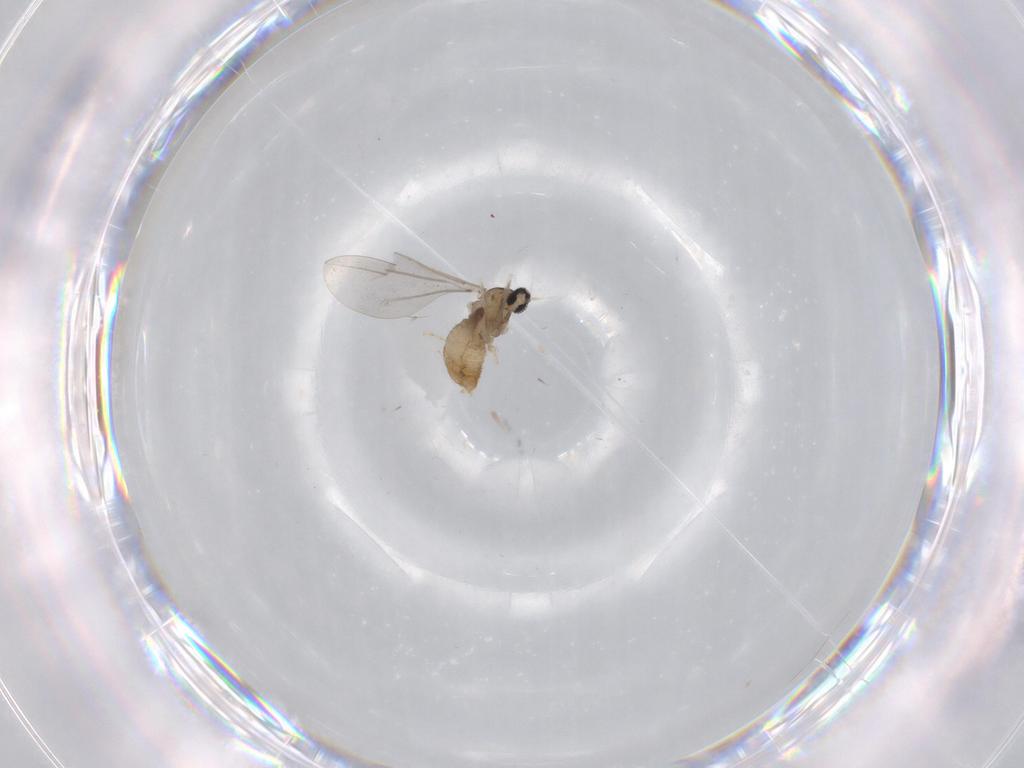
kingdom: Animalia
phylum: Arthropoda
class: Insecta
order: Diptera
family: Cecidomyiidae
